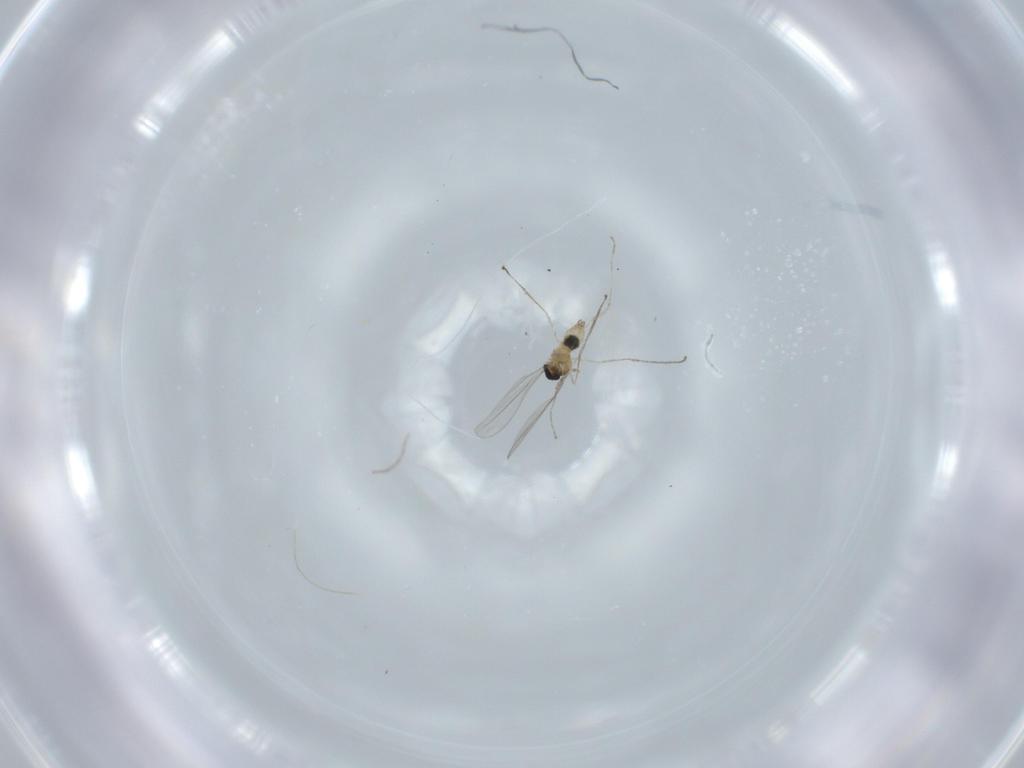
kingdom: Animalia
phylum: Arthropoda
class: Insecta
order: Diptera
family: Cecidomyiidae
